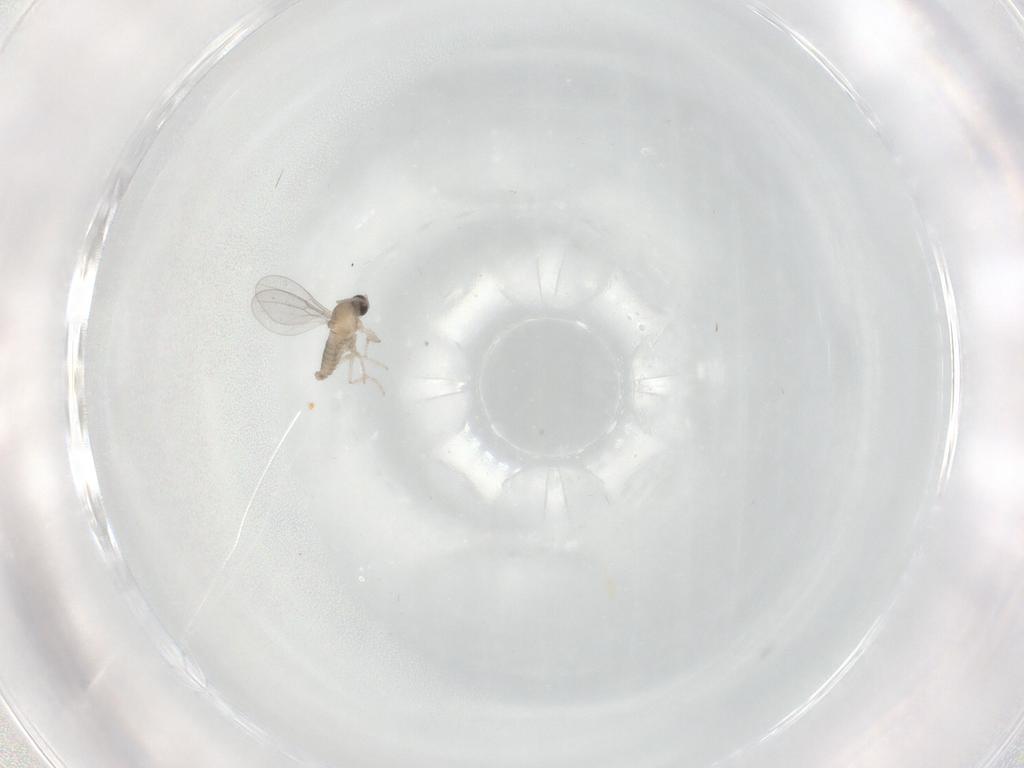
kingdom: Animalia
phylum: Arthropoda
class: Insecta
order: Diptera
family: Cecidomyiidae
